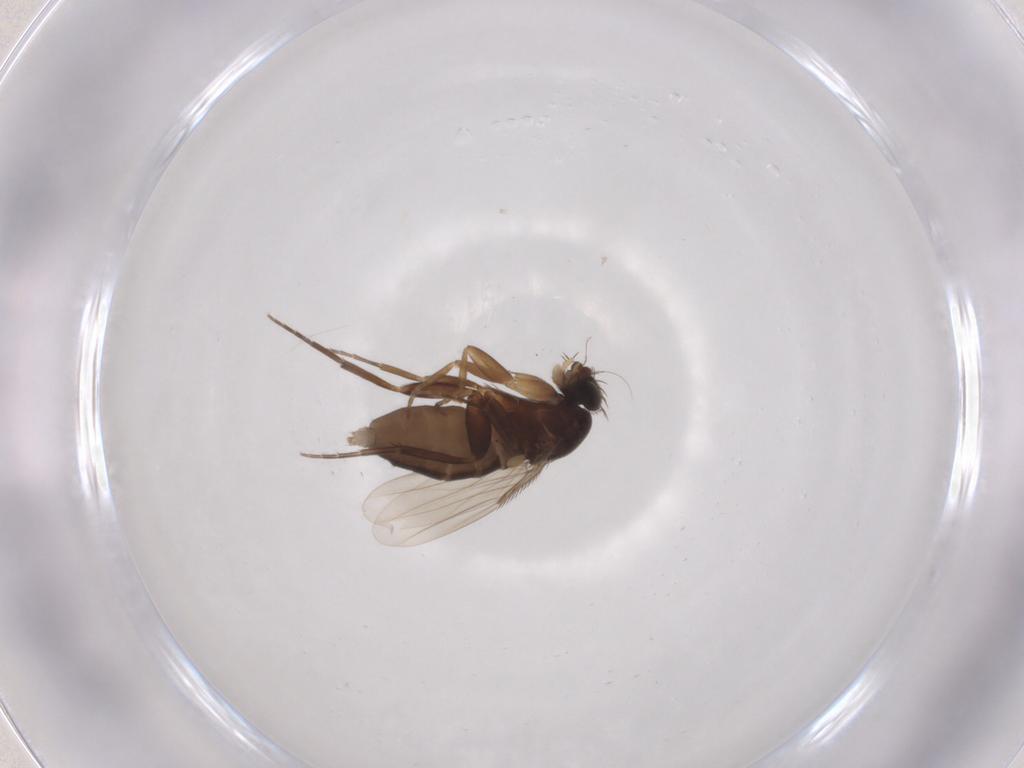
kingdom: Animalia
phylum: Arthropoda
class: Insecta
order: Diptera
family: Phoridae
